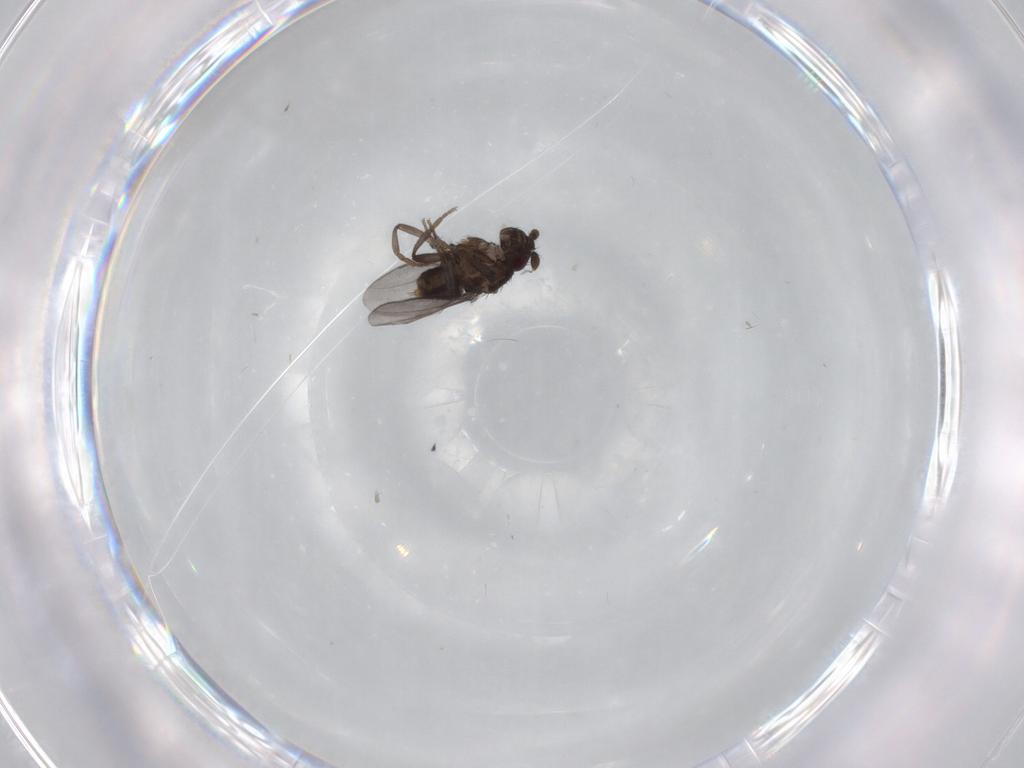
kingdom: Animalia
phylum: Arthropoda
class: Insecta
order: Diptera
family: Sphaeroceridae
